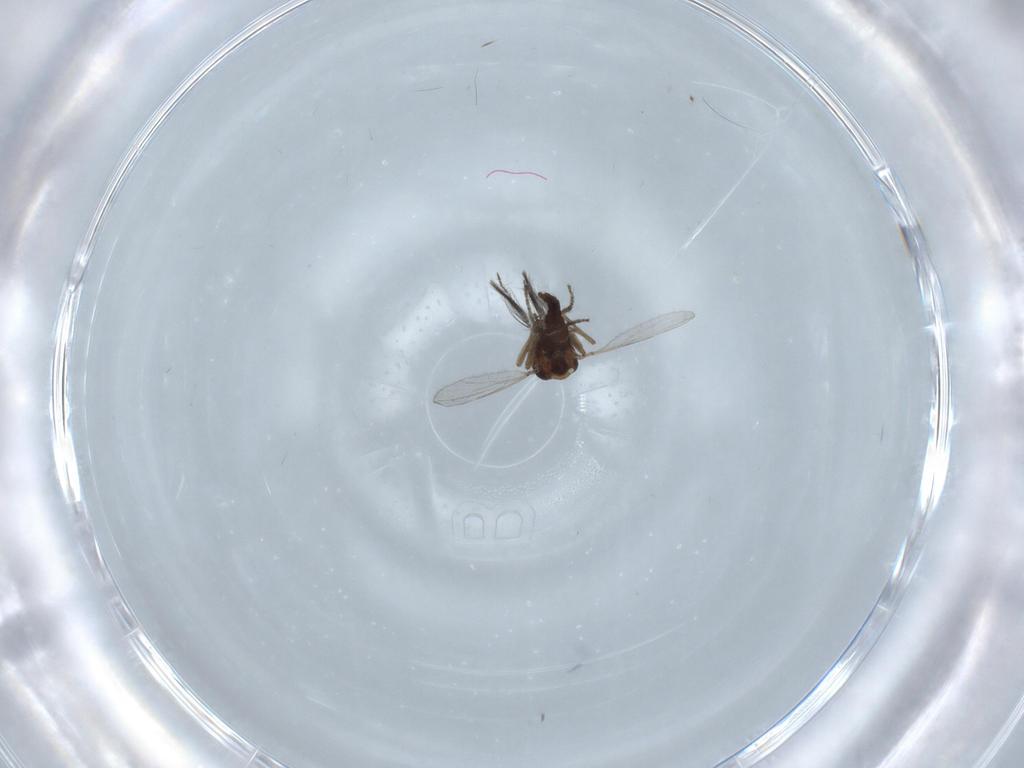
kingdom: Animalia
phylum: Arthropoda
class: Insecta
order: Diptera
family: Ceratopogonidae
